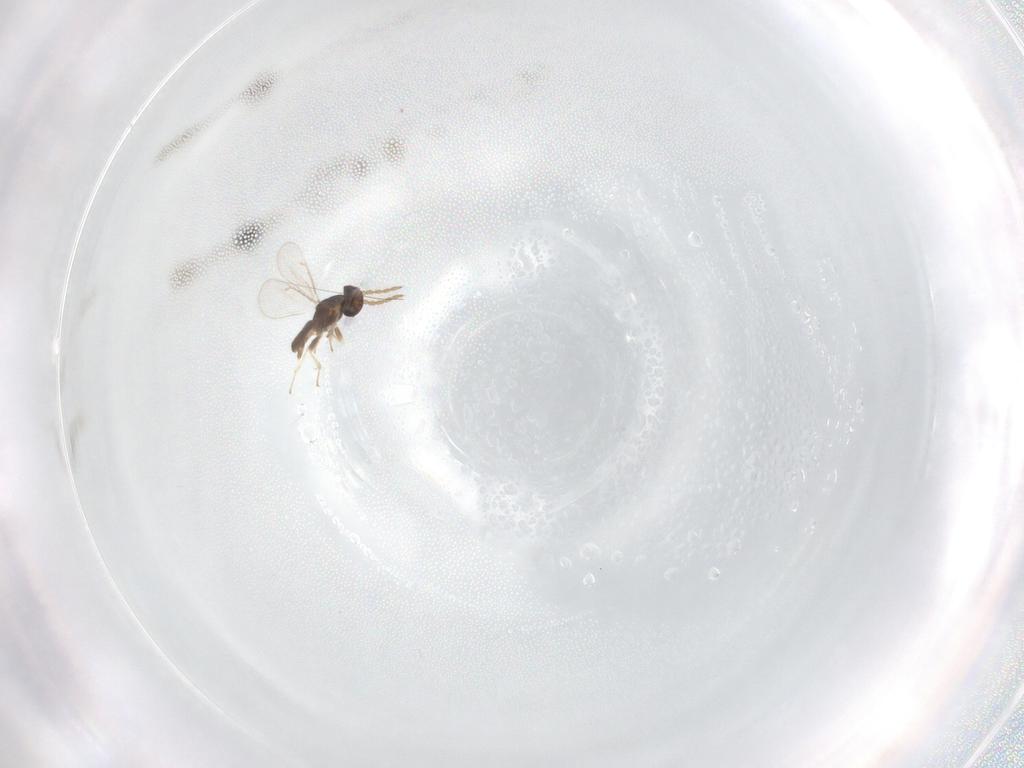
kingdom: Animalia
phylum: Arthropoda
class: Insecta
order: Hymenoptera
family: Eulophidae
